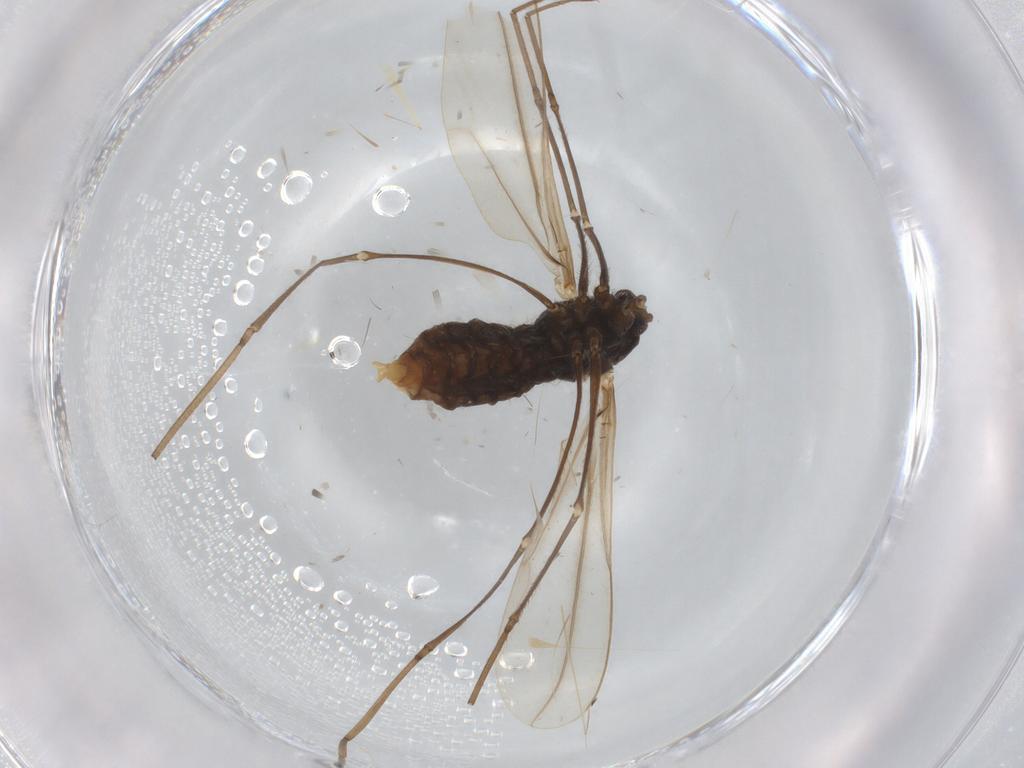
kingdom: Animalia
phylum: Arthropoda
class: Insecta
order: Diptera
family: Cecidomyiidae
